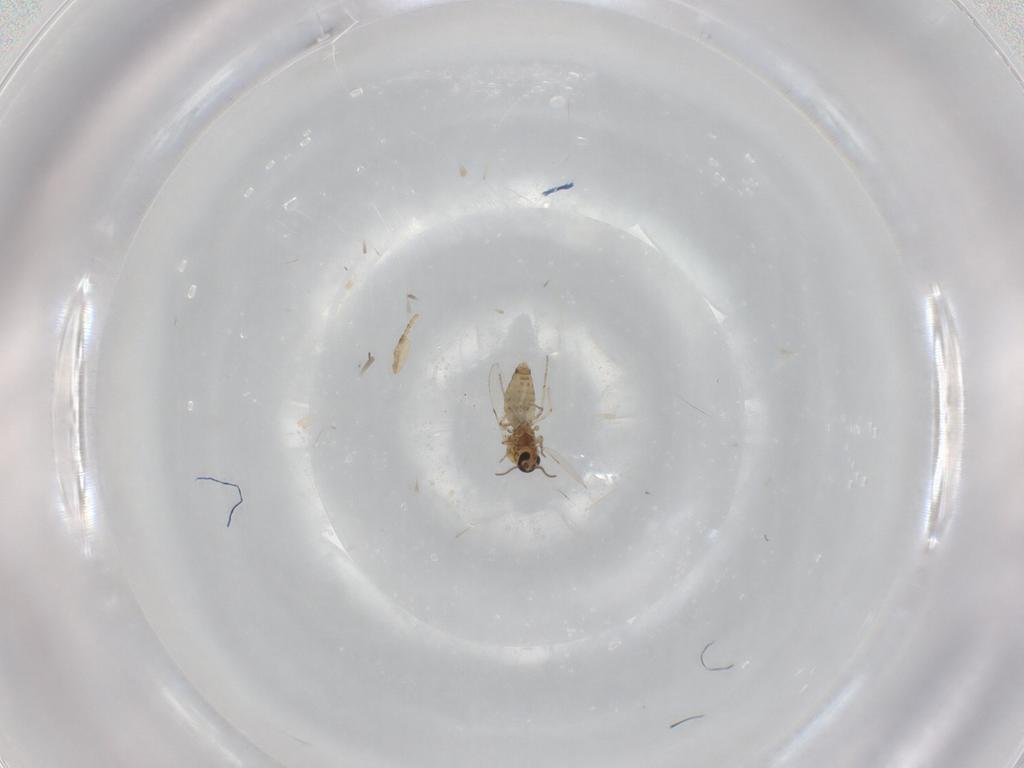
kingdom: Animalia
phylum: Arthropoda
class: Insecta
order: Diptera
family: Ceratopogonidae
